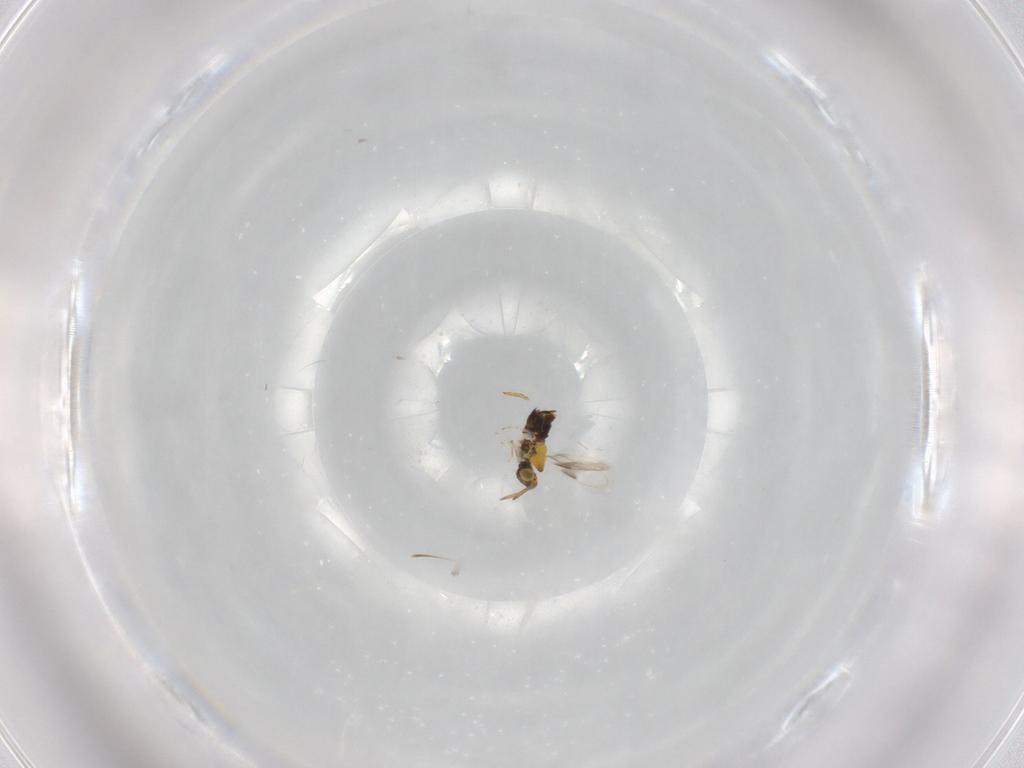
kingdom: Animalia
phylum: Arthropoda
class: Insecta
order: Hymenoptera
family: Aphelinidae
